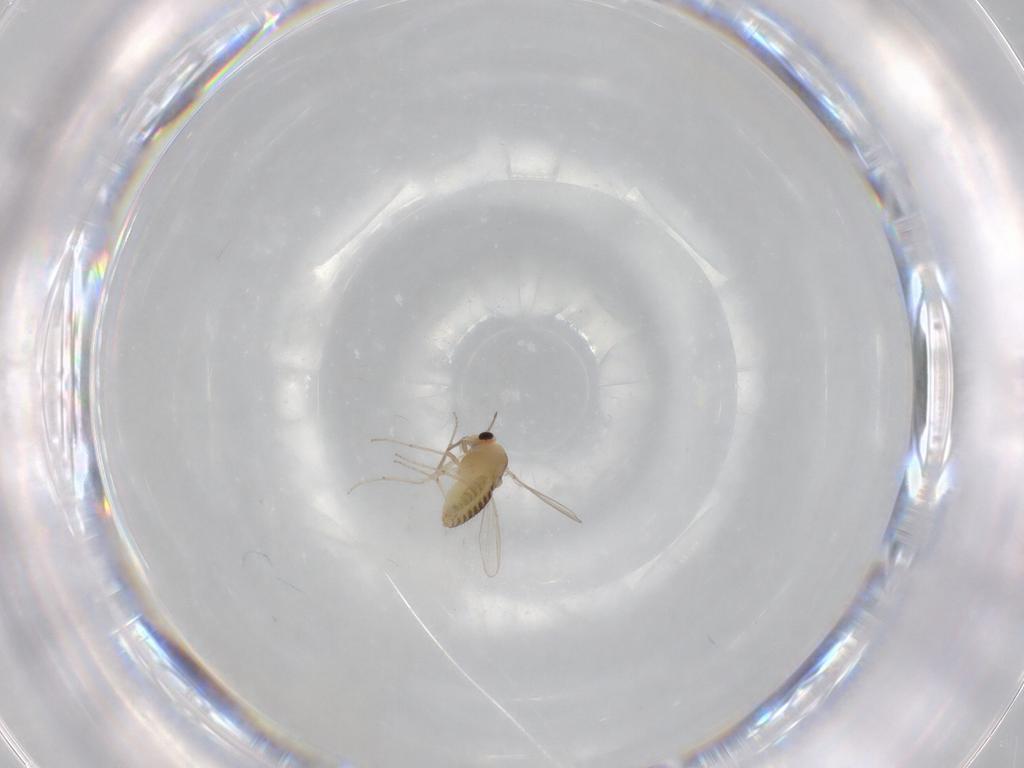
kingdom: Animalia
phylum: Arthropoda
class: Insecta
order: Diptera
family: Chironomidae
